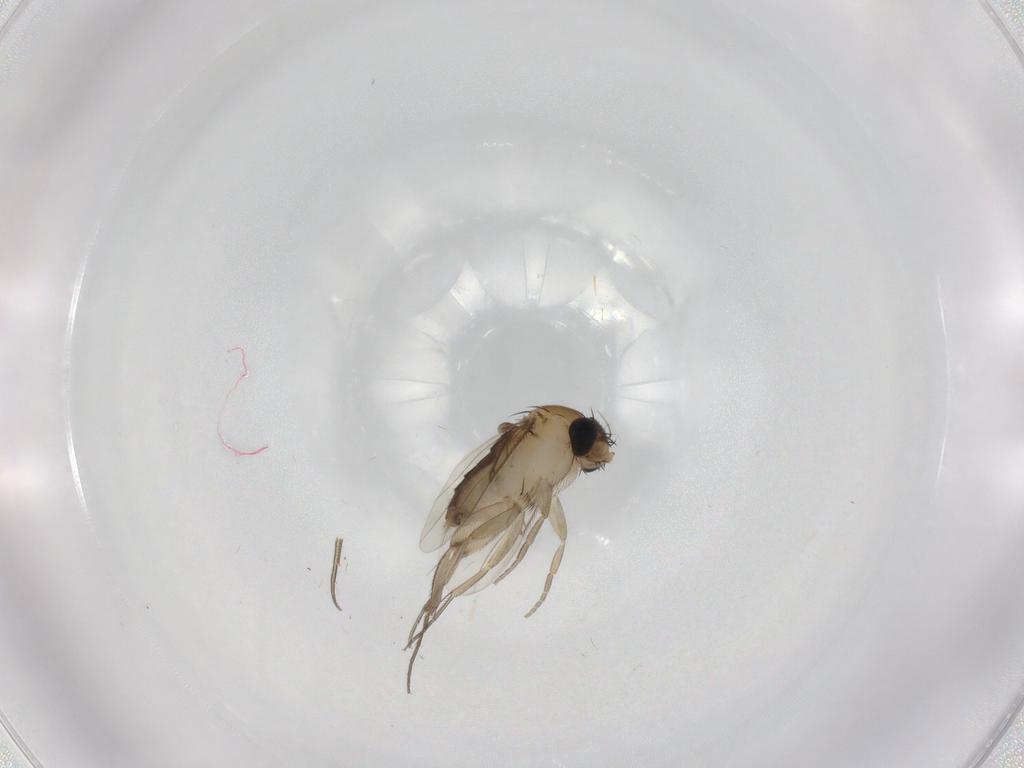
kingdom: Animalia
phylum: Arthropoda
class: Insecta
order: Diptera
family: Phoridae
